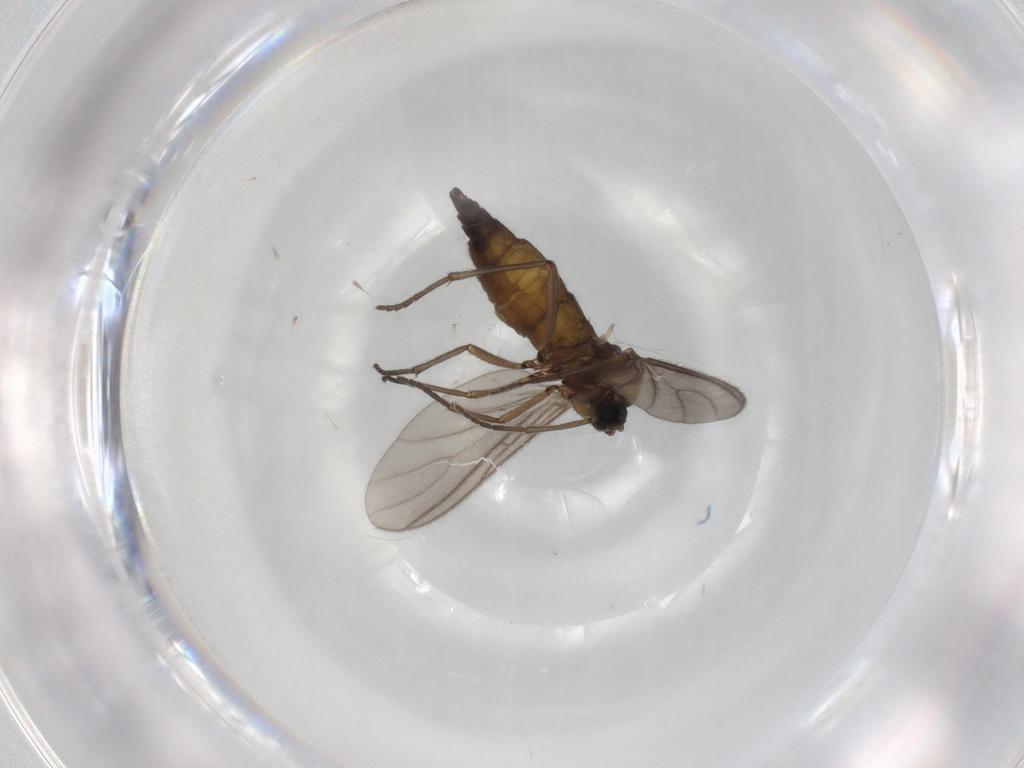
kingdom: Animalia
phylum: Arthropoda
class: Insecta
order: Diptera
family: Sciaridae
